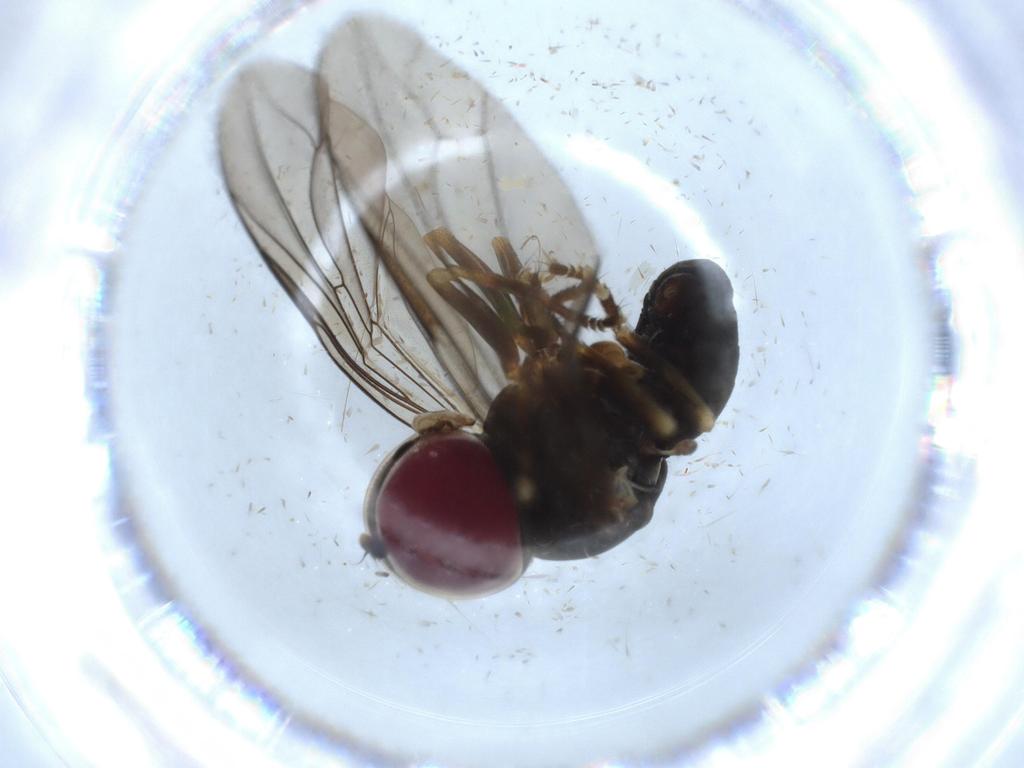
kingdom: Animalia
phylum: Arthropoda
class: Insecta
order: Diptera
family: Pipunculidae
